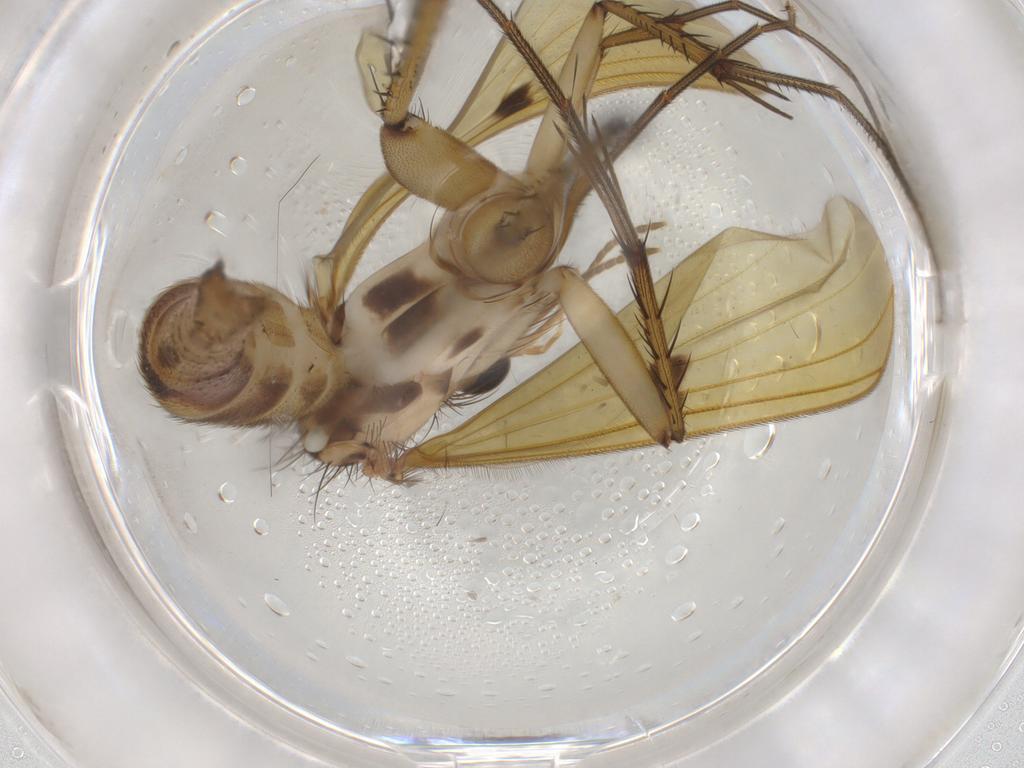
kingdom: Animalia
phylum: Arthropoda
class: Insecta
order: Diptera
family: Mycetophilidae
